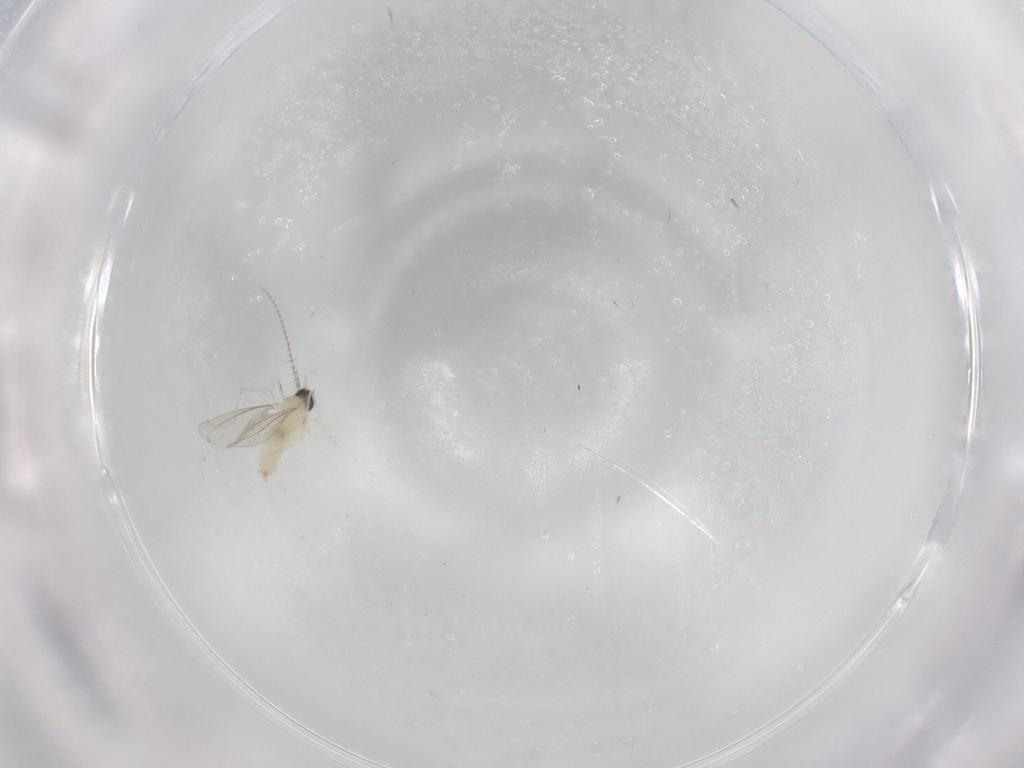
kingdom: Animalia
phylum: Arthropoda
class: Insecta
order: Diptera
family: Cecidomyiidae
